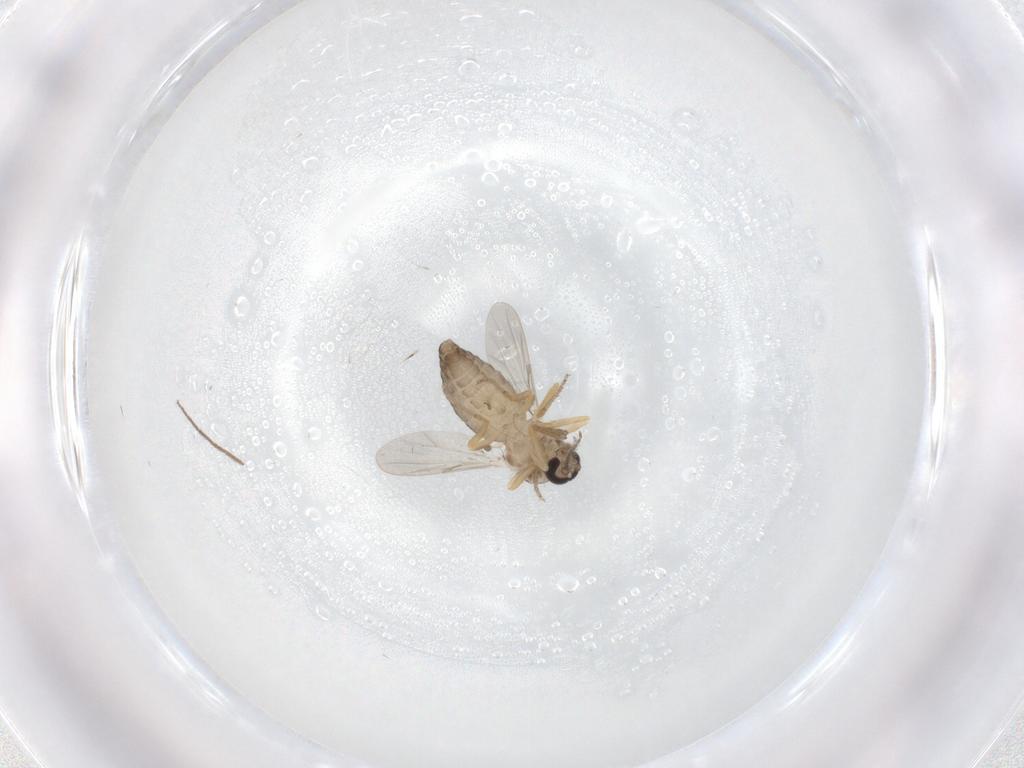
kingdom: Animalia
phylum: Arthropoda
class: Insecta
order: Diptera
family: Ceratopogonidae
